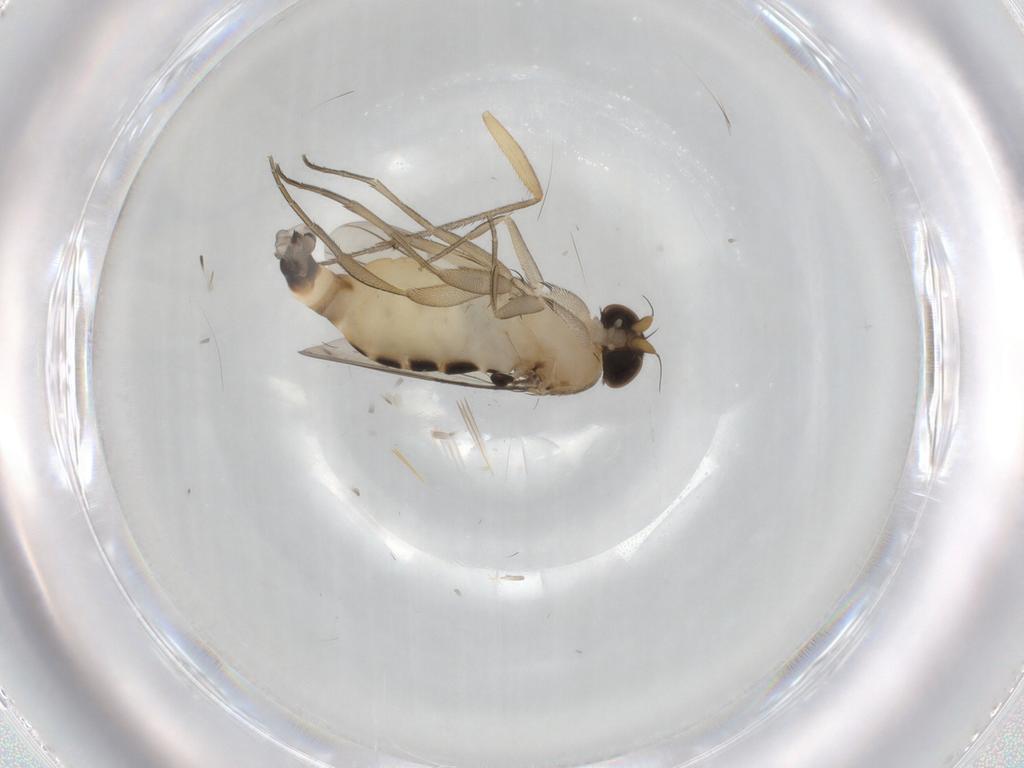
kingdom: Animalia
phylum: Arthropoda
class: Insecta
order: Diptera
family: Phoridae
